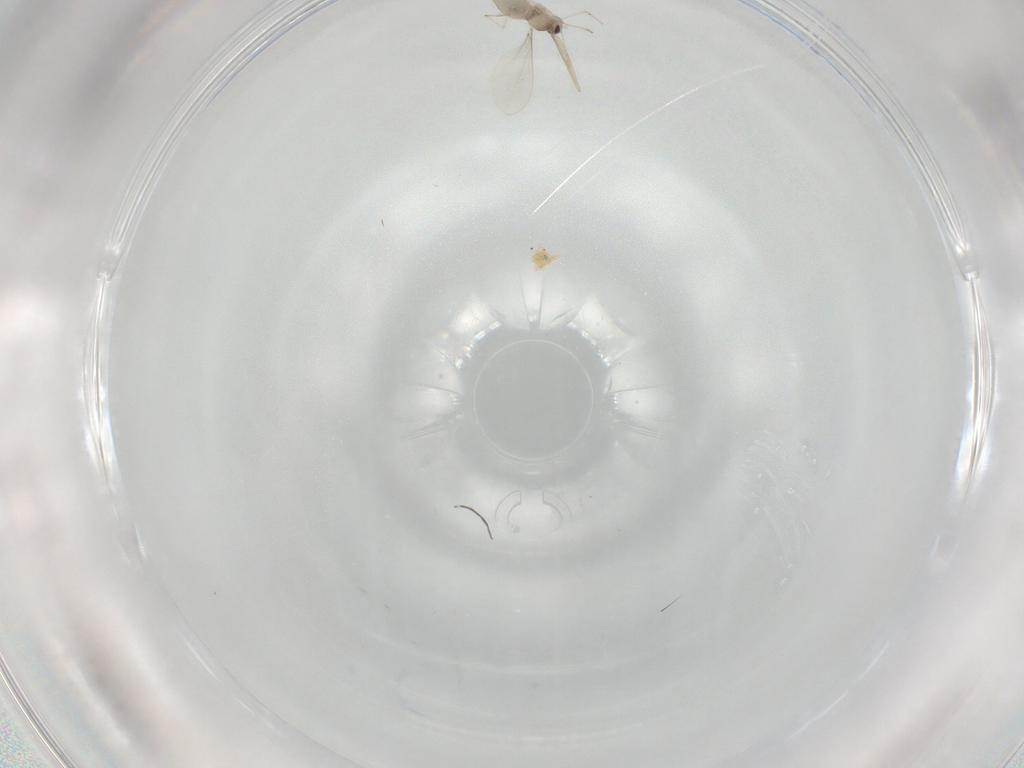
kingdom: Animalia
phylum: Arthropoda
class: Insecta
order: Diptera
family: Cecidomyiidae
